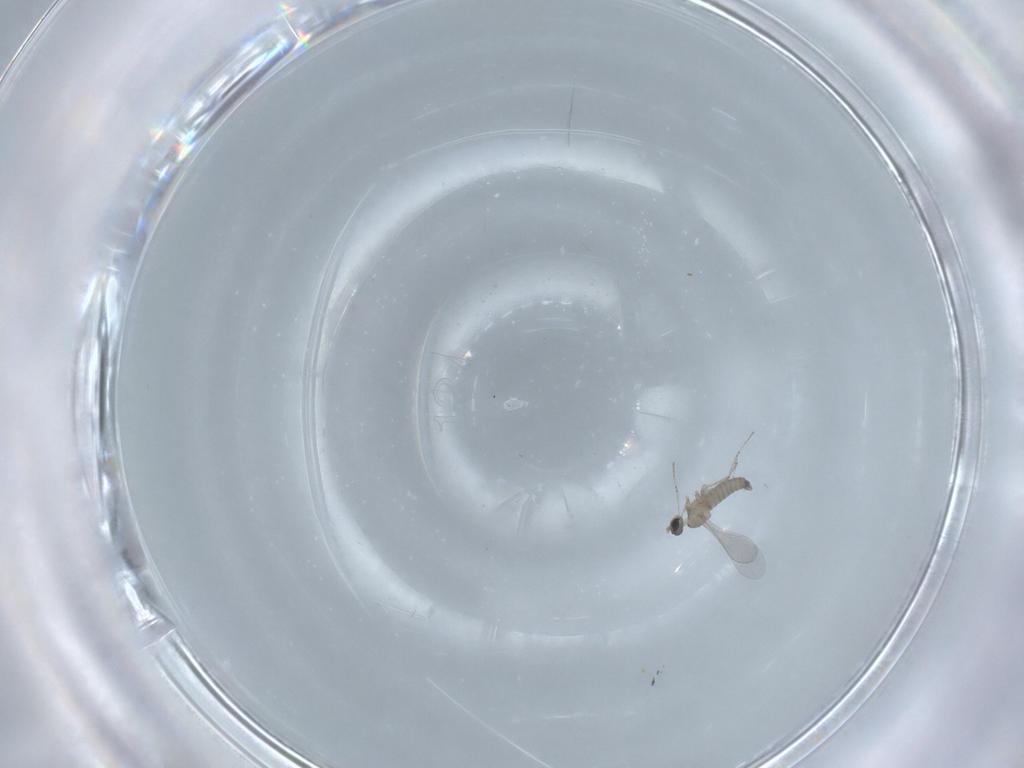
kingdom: Animalia
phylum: Arthropoda
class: Insecta
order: Diptera
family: Cecidomyiidae
